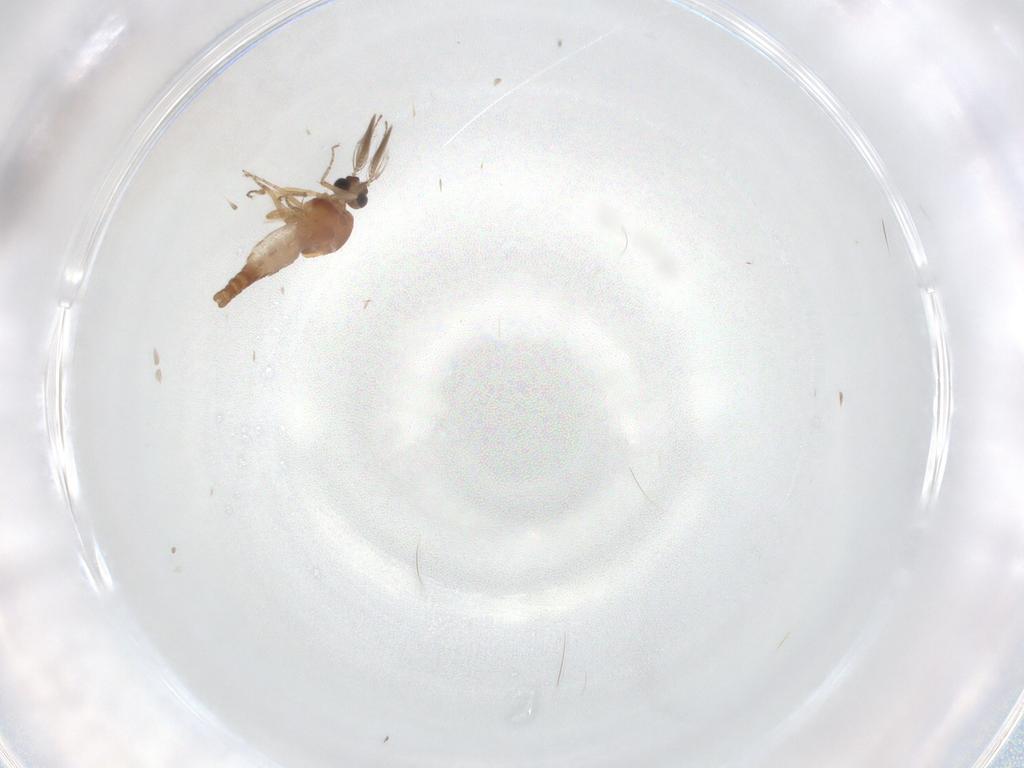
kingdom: Animalia
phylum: Arthropoda
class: Insecta
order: Diptera
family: Ceratopogonidae
